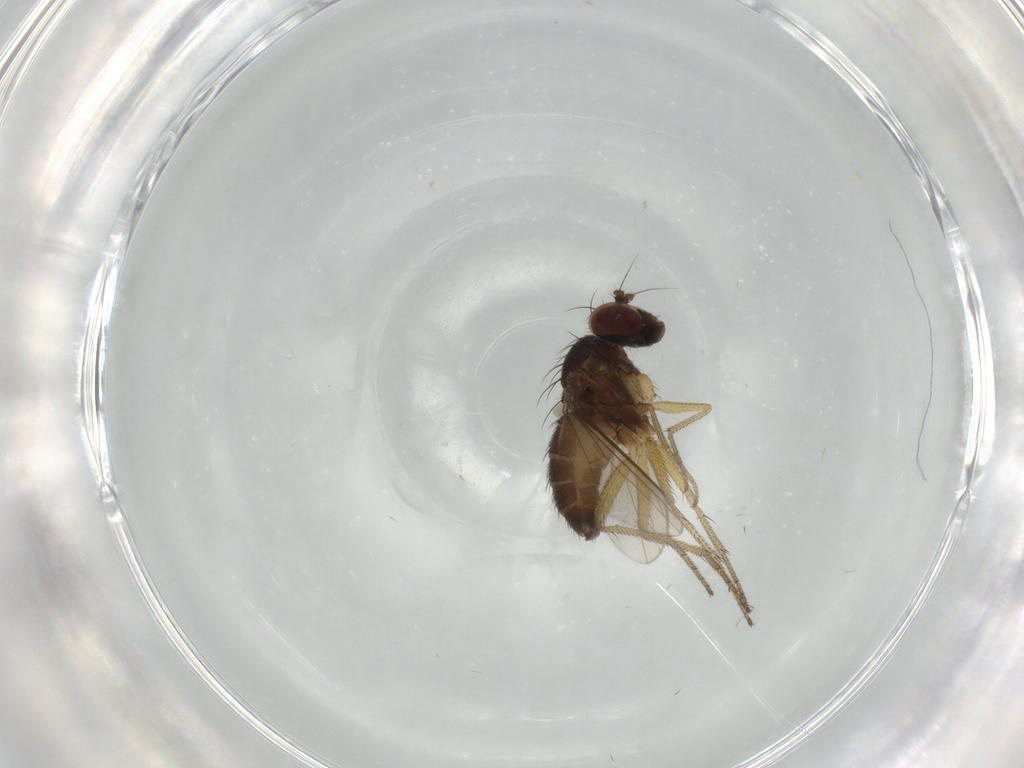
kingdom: Animalia
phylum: Arthropoda
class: Insecta
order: Diptera
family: Dolichopodidae
